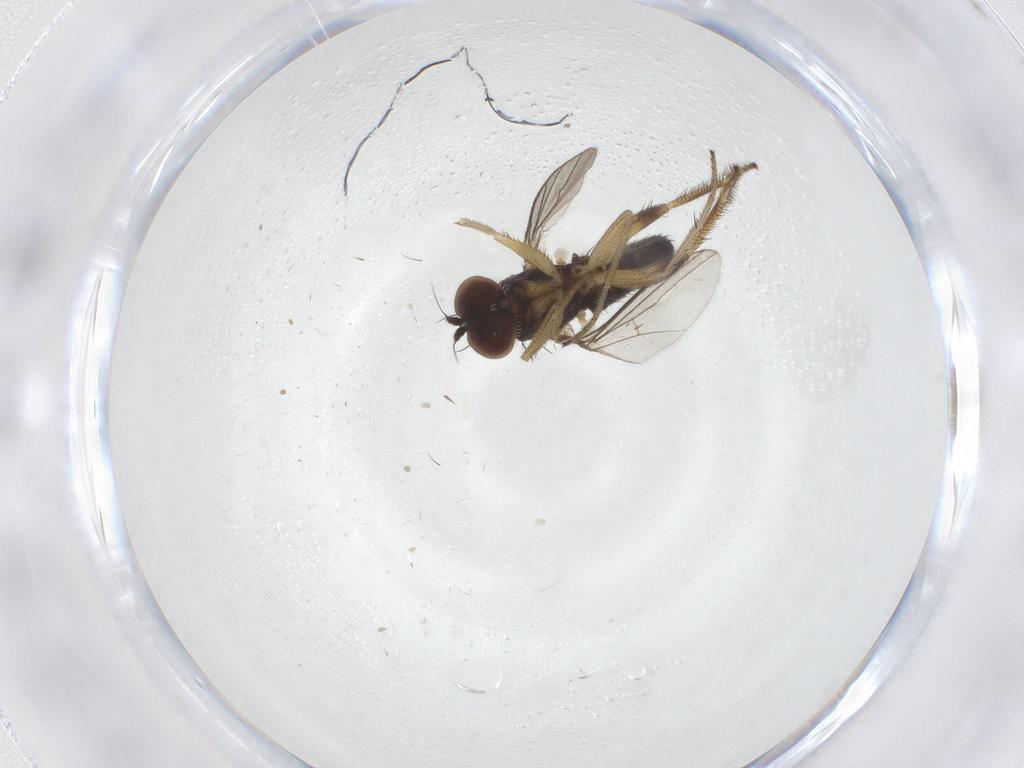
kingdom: Animalia
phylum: Arthropoda
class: Insecta
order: Diptera
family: Dolichopodidae
